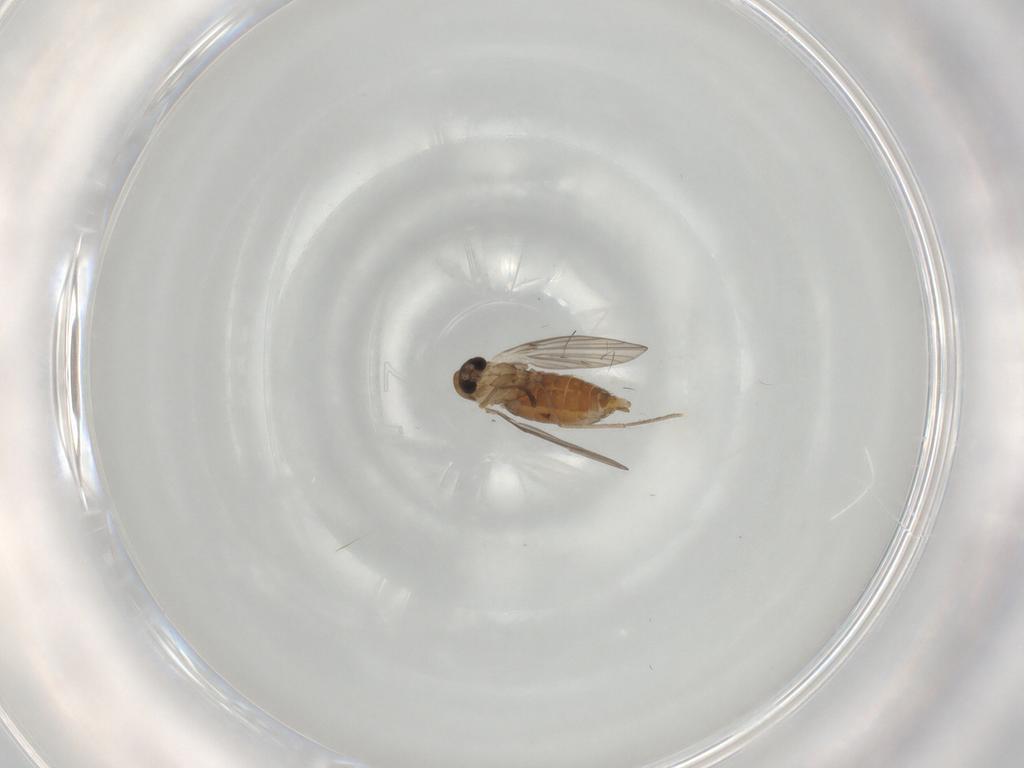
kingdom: Animalia
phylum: Arthropoda
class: Insecta
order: Diptera
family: Psychodidae
